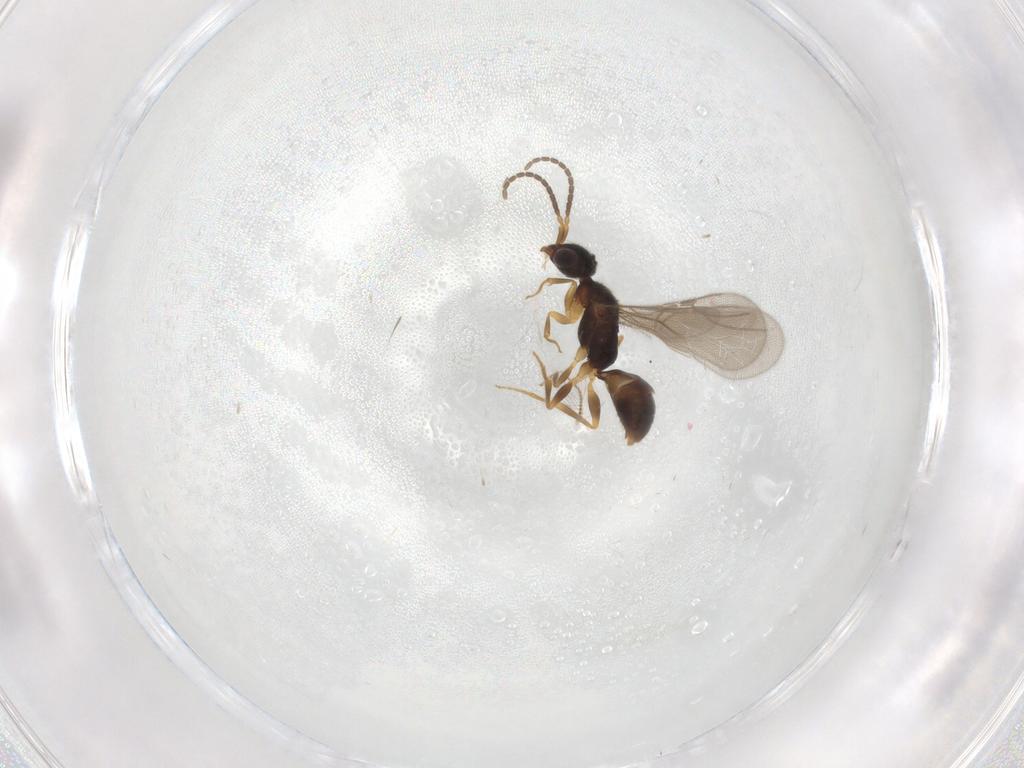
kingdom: Animalia
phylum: Arthropoda
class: Insecta
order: Hymenoptera
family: Bethylidae
